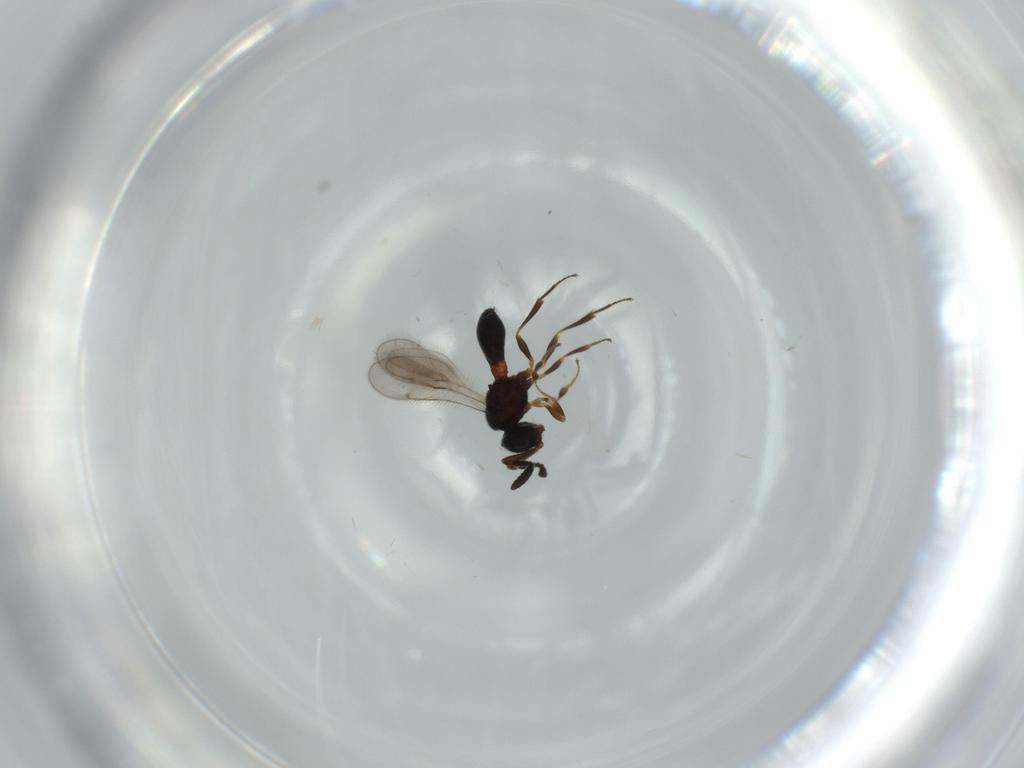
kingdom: Animalia
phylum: Arthropoda
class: Insecta
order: Hymenoptera
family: Scelionidae
